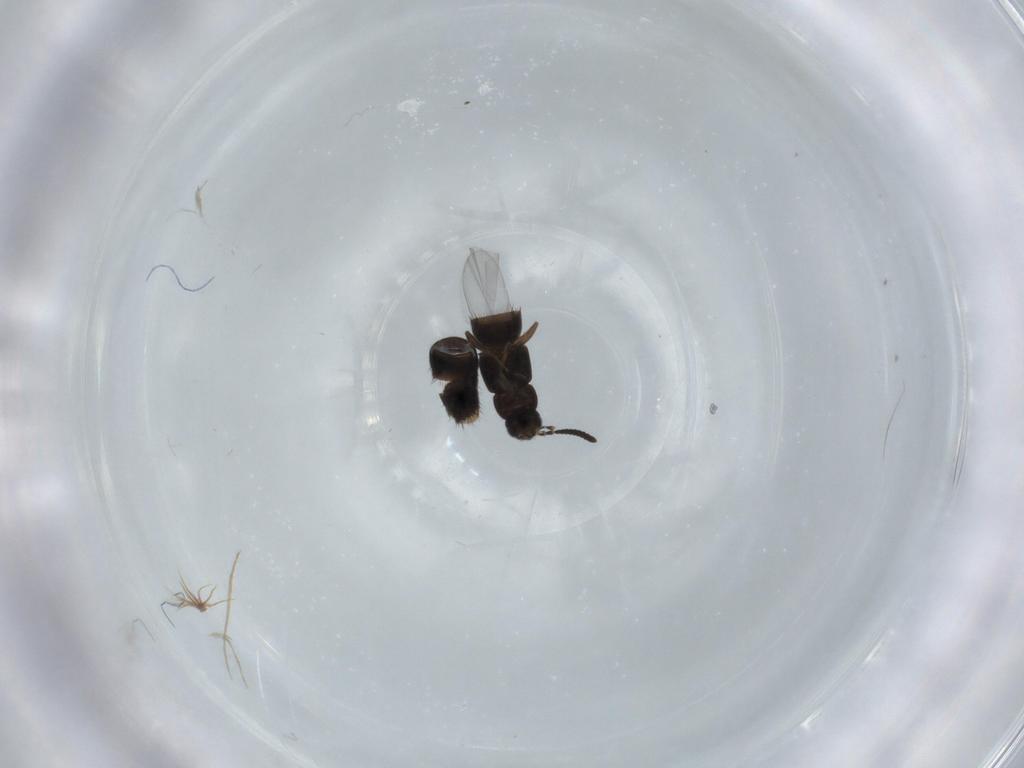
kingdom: Animalia
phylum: Arthropoda
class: Insecta
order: Coleoptera
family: Staphylinidae
